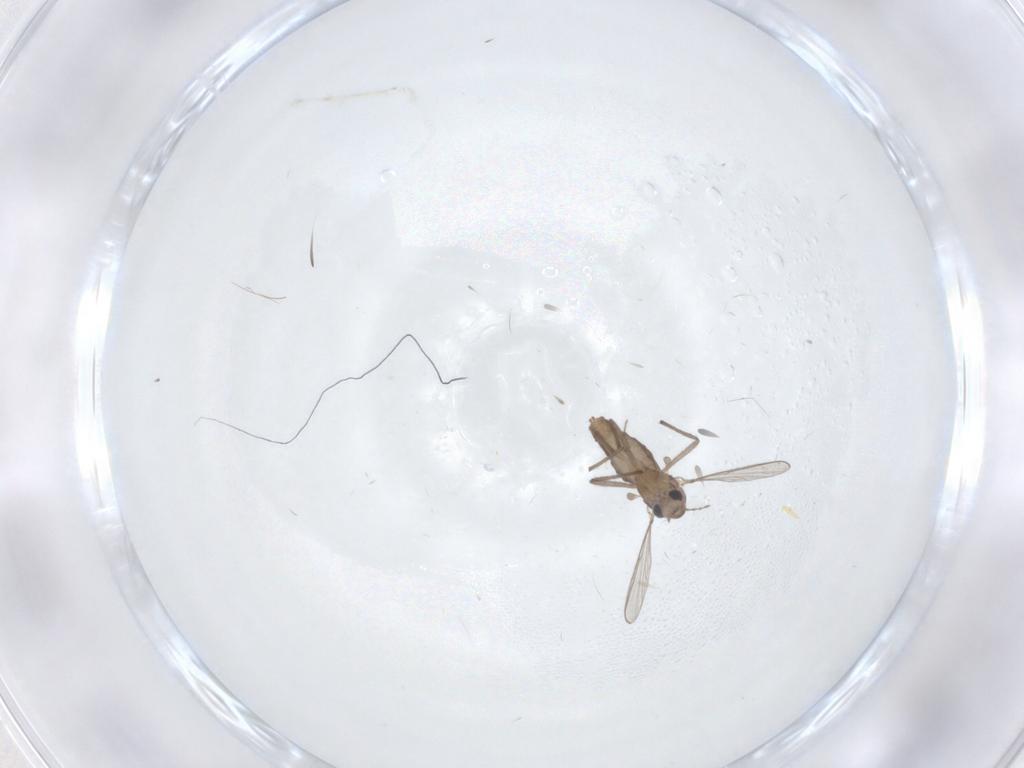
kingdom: Animalia
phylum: Arthropoda
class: Insecta
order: Diptera
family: Chironomidae
